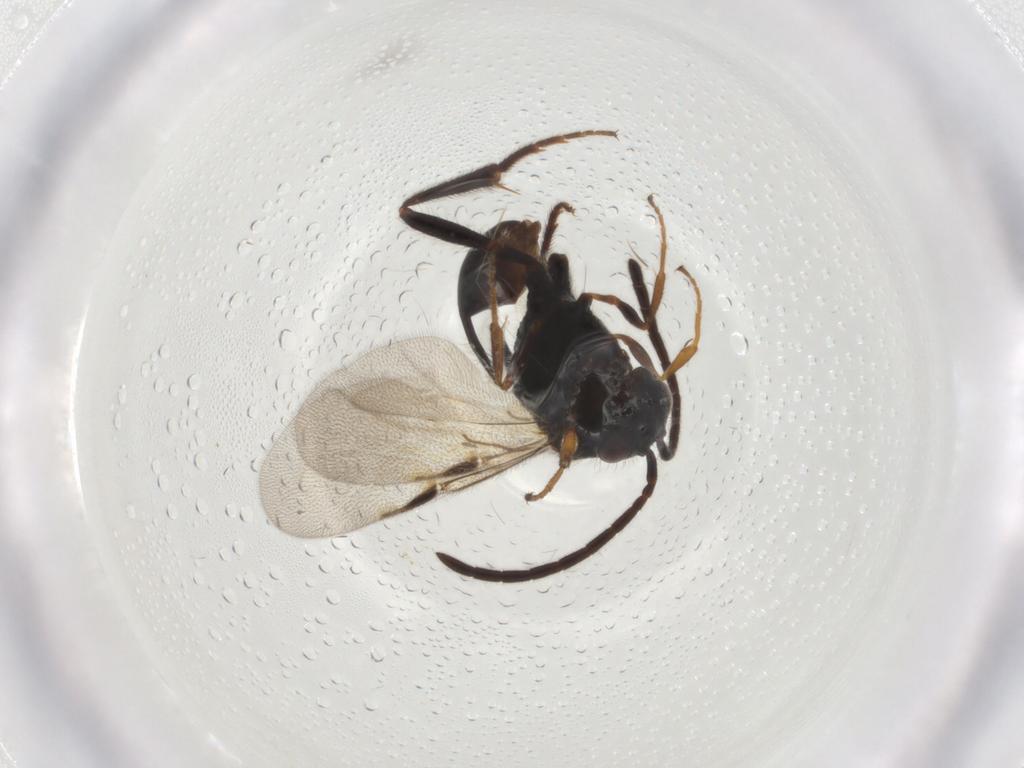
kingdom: Animalia
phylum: Arthropoda
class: Insecta
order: Hymenoptera
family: Evaniidae
